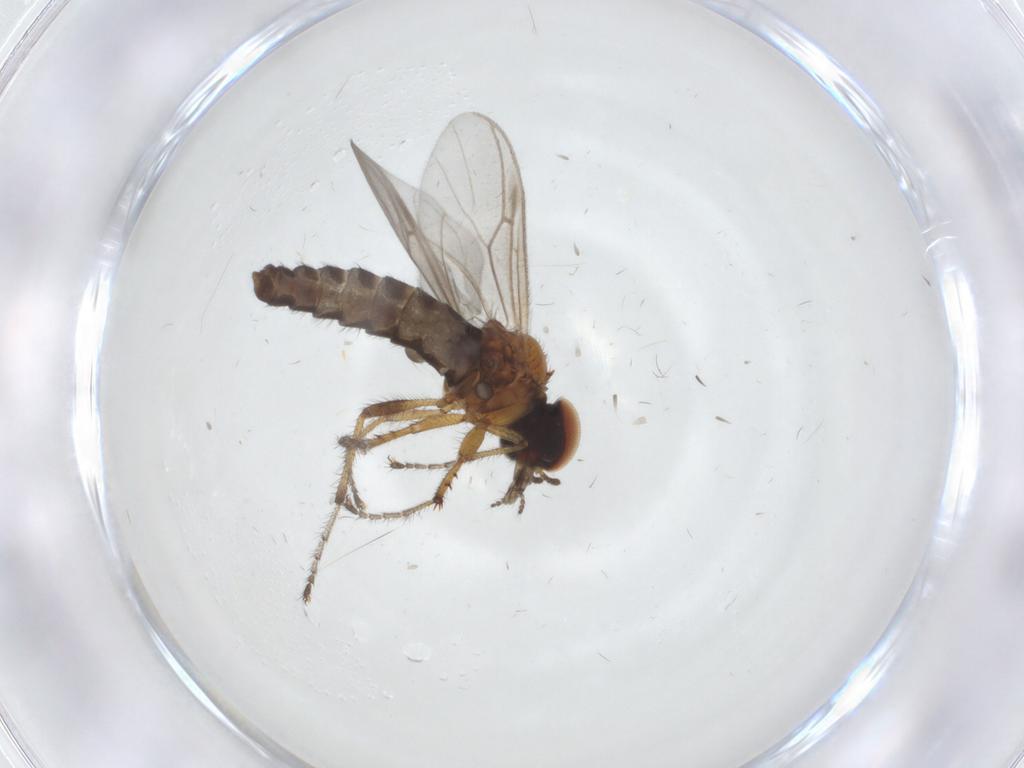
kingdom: Animalia
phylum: Arthropoda
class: Insecta
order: Diptera
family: Bibionidae
